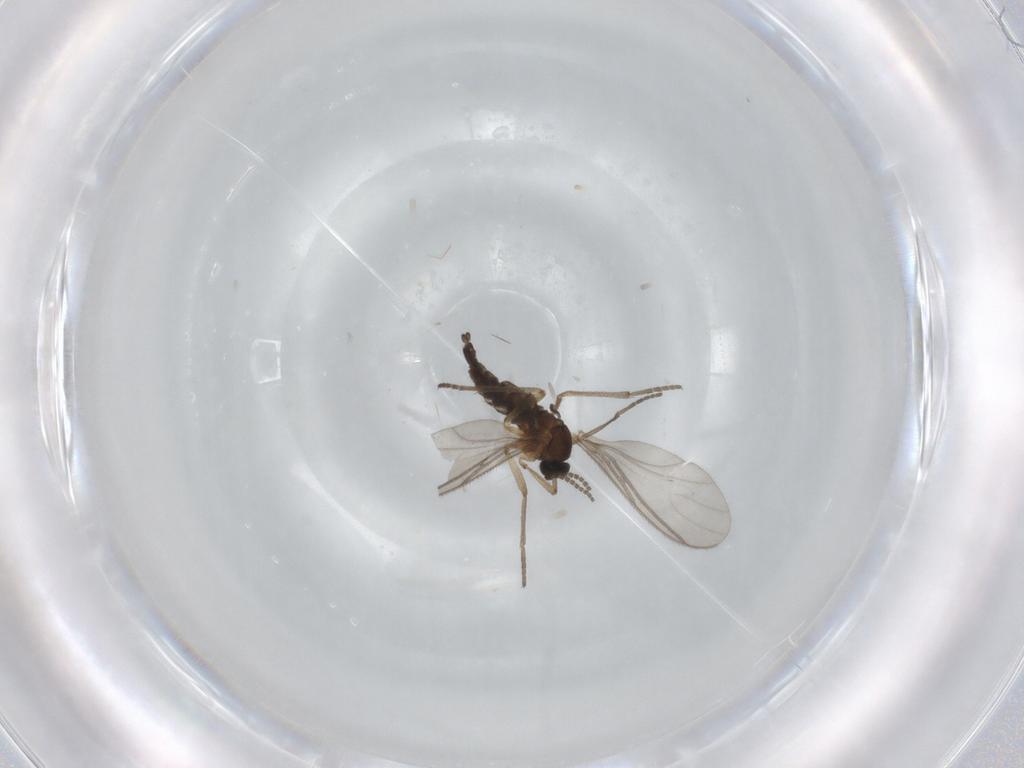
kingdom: Animalia
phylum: Arthropoda
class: Insecta
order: Diptera
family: Sciaridae
